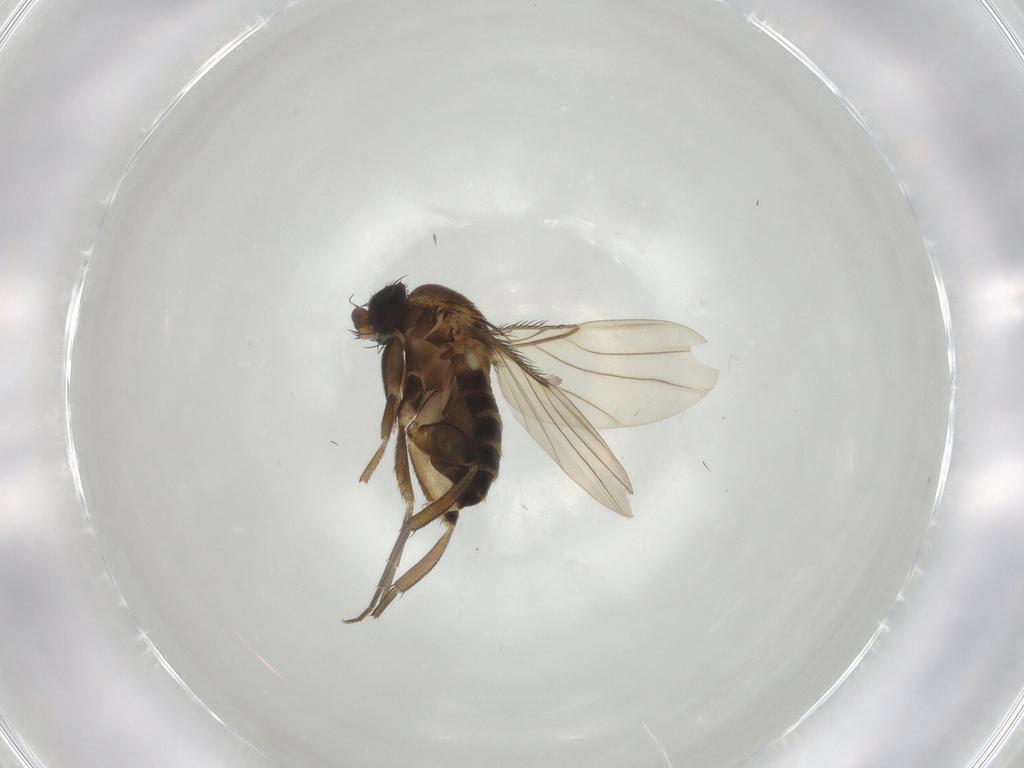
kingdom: Animalia
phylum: Arthropoda
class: Insecta
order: Diptera
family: Phoridae
